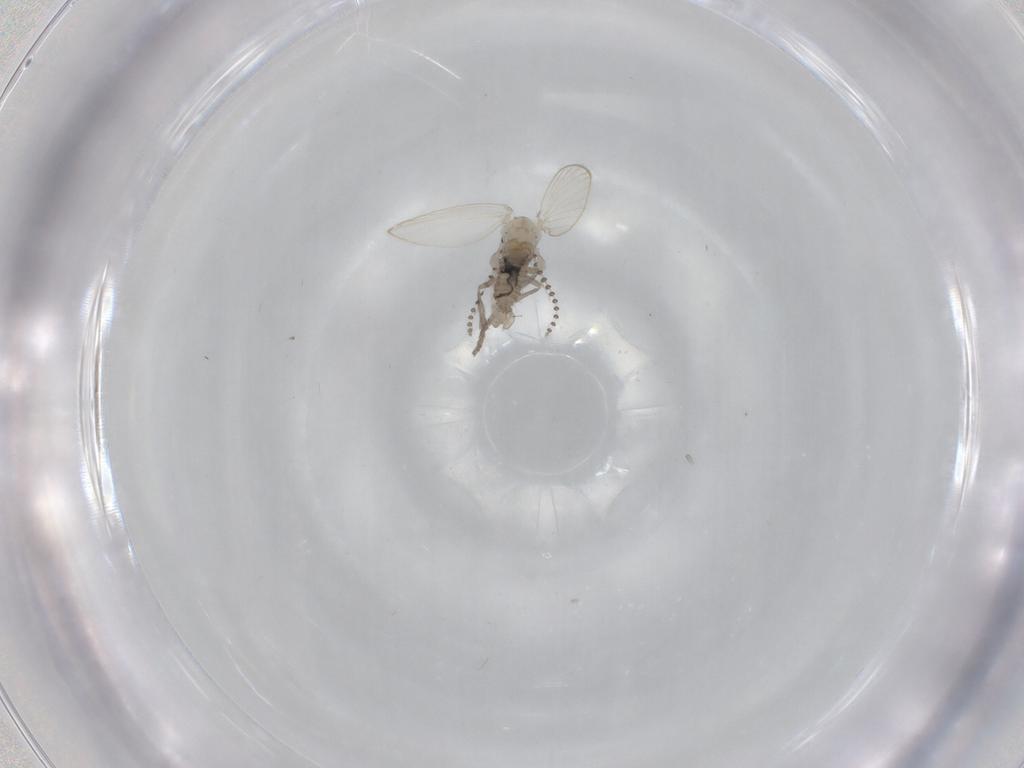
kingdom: Animalia
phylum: Arthropoda
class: Insecta
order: Diptera
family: Psychodidae
